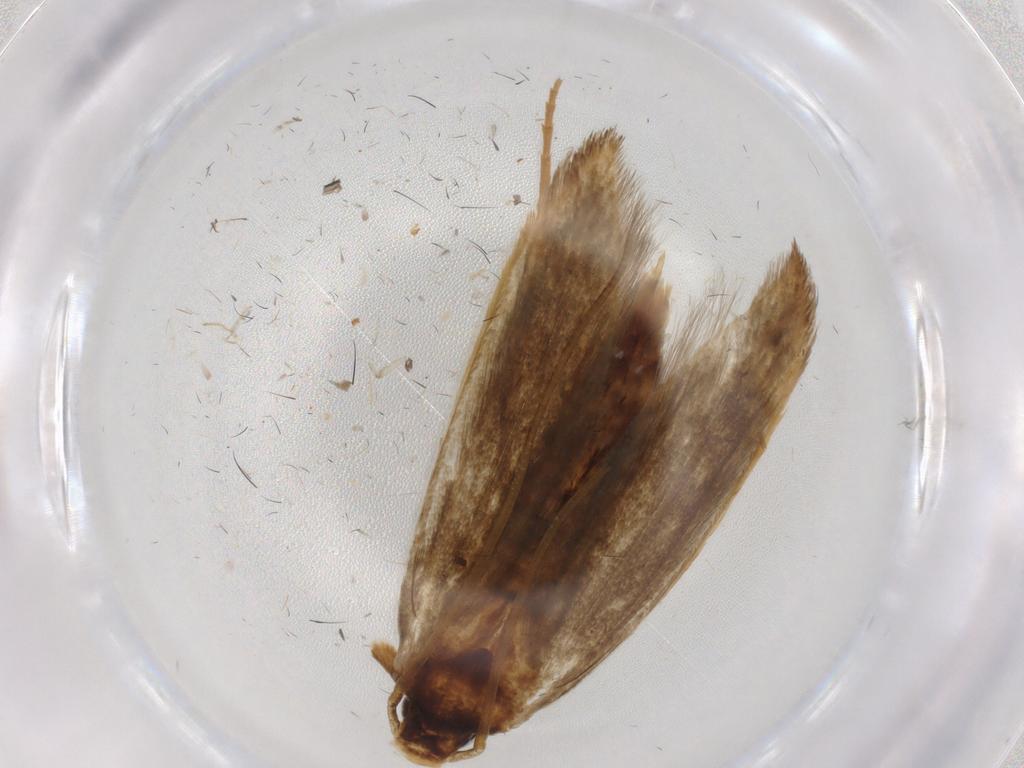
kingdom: Animalia
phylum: Arthropoda
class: Insecta
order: Lepidoptera
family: Tineidae
